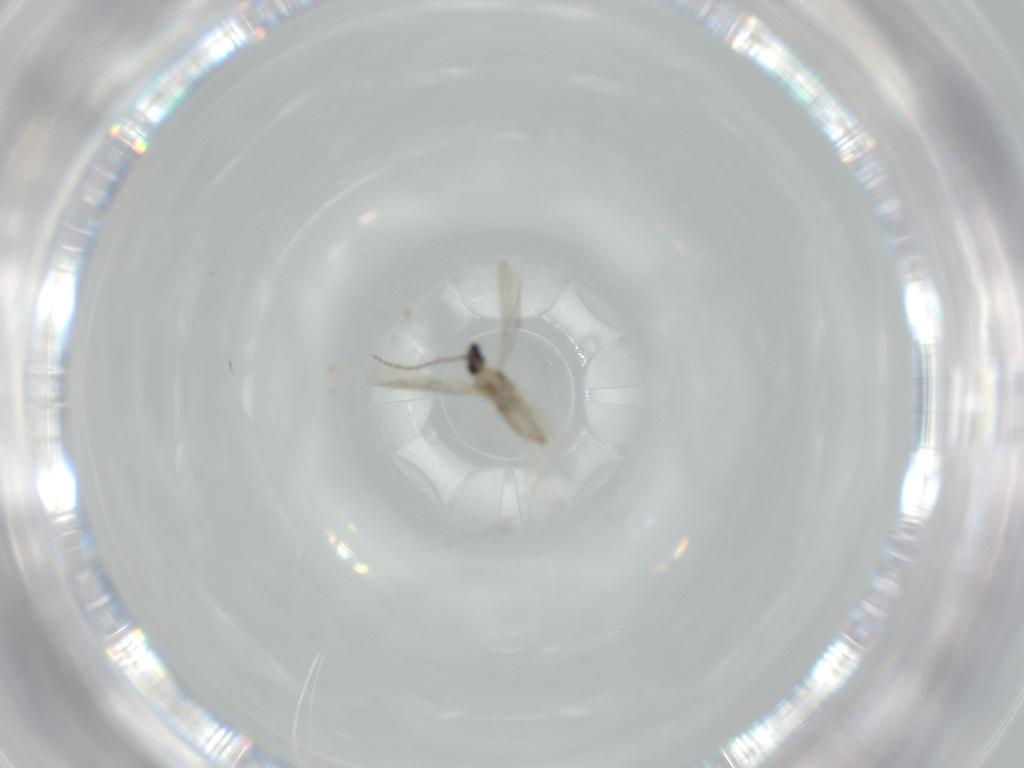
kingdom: Animalia
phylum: Arthropoda
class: Insecta
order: Diptera
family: Cecidomyiidae
